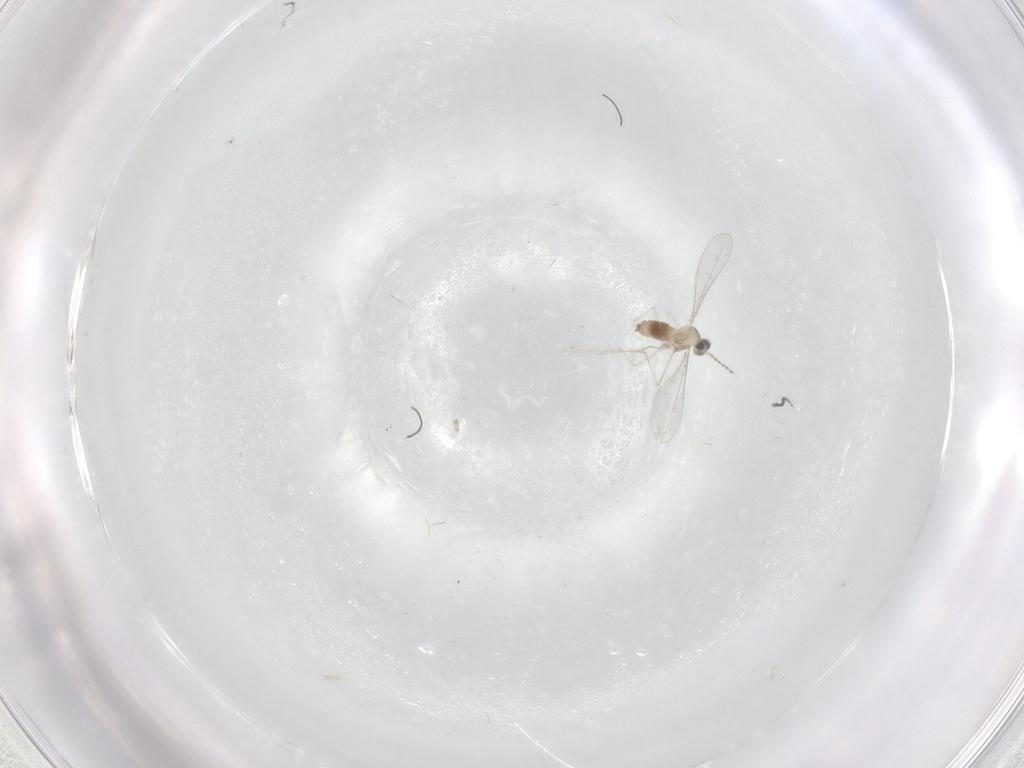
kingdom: Animalia
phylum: Arthropoda
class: Insecta
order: Diptera
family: Cecidomyiidae
